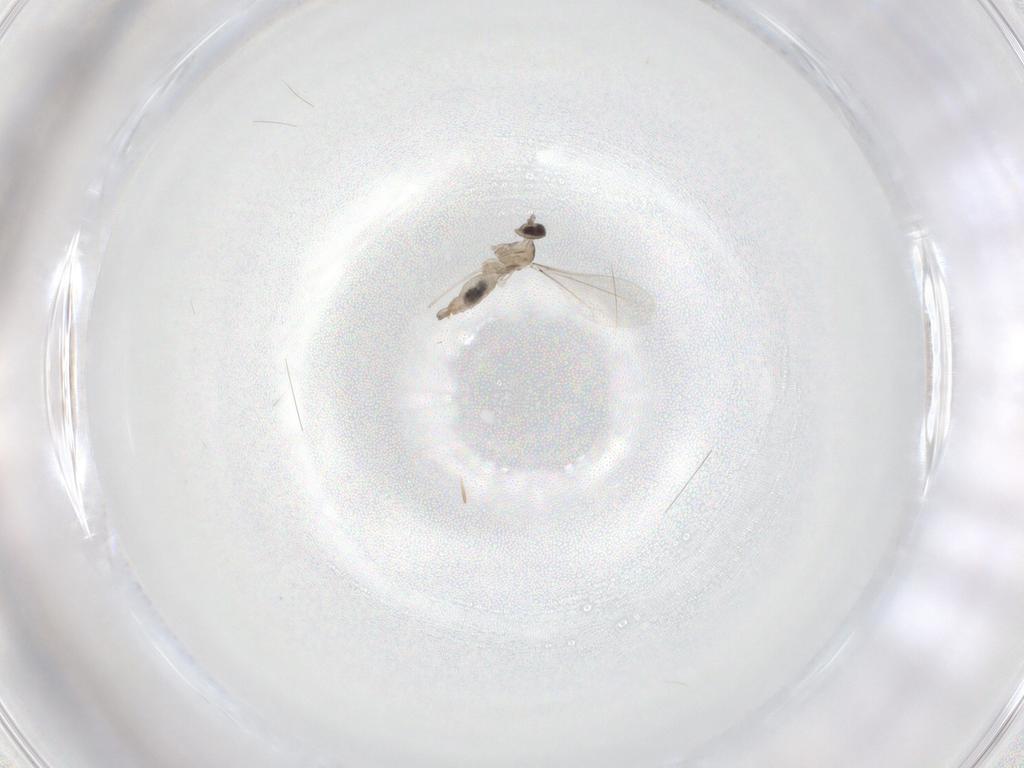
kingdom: Animalia
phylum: Arthropoda
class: Insecta
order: Diptera
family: Cecidomyiidae
